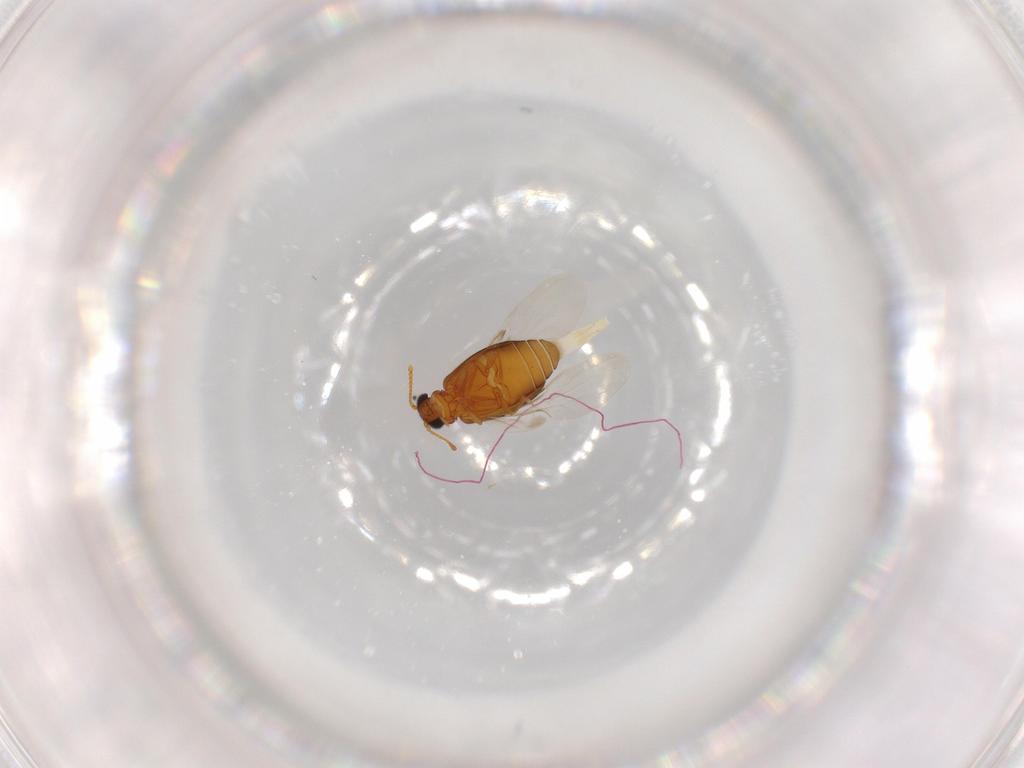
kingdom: Animalia
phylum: Arthropoda
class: Insecta
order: Coleoptera
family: Aderidae
